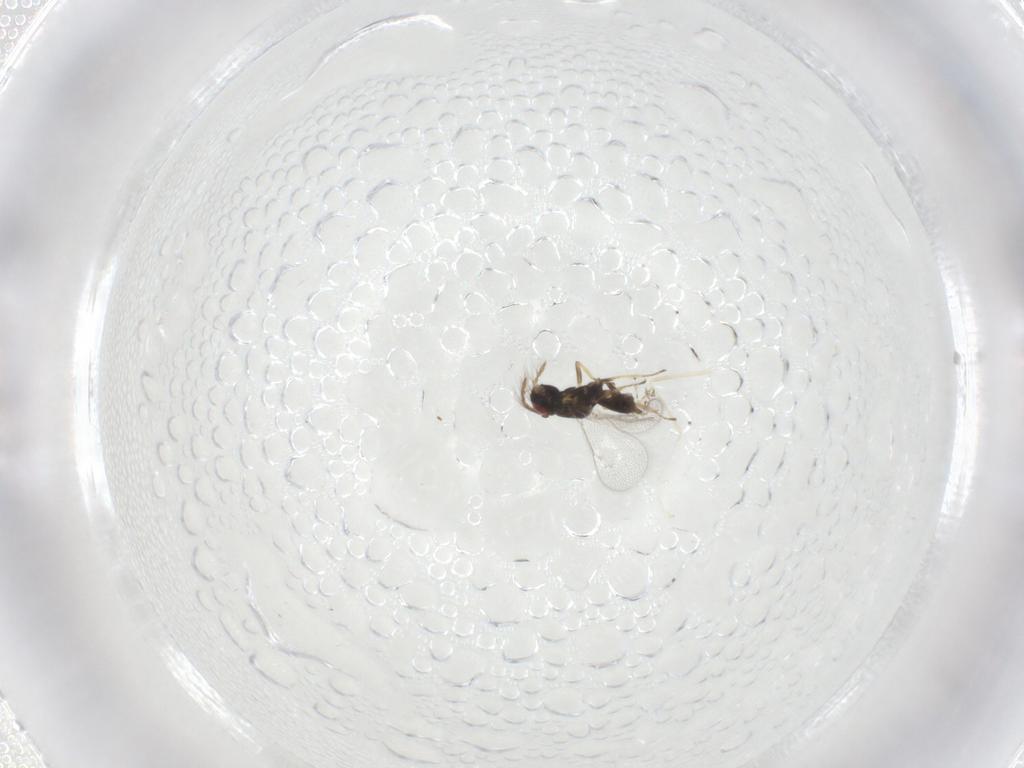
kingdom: Animalia
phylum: Arthropoda
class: Insecta
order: Hymenoptera
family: Eulophidae
